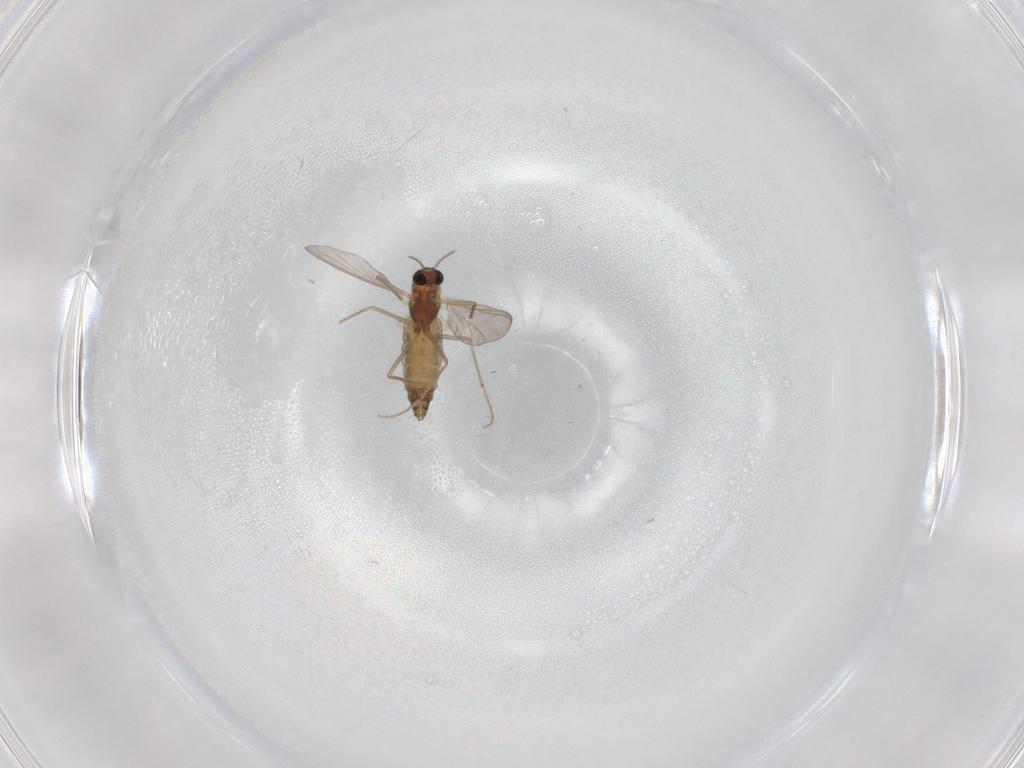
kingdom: Animalia
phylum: Arthropoda
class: Insecta
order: Diptera
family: Chironomidae
